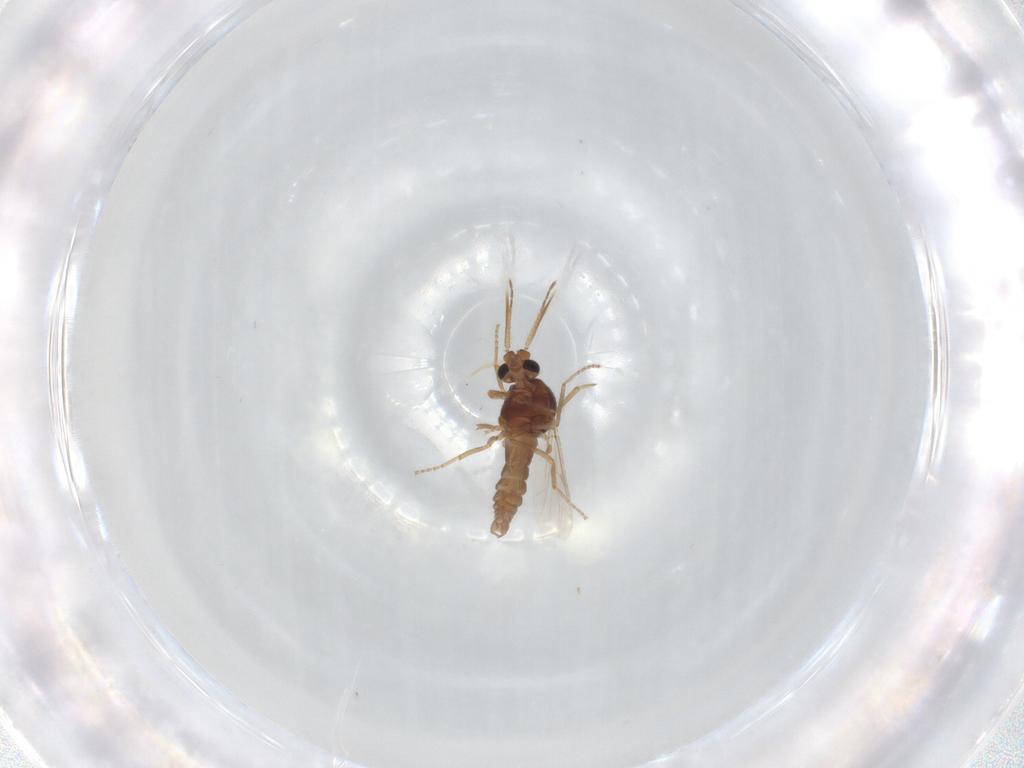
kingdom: Animalia
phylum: Arthropoda
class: Insecta
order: Diptera
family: Ceratopogonidae
